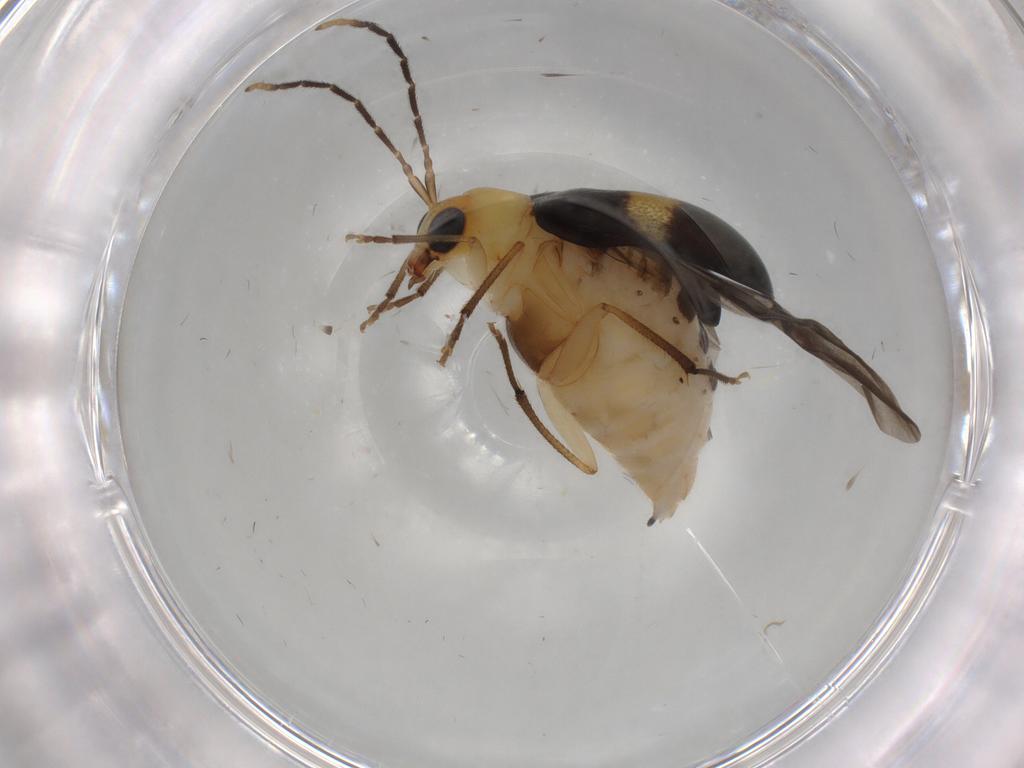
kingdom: Animalia
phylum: Arthropoda
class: Insecta
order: Coleoptera
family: Chrysomelidae
